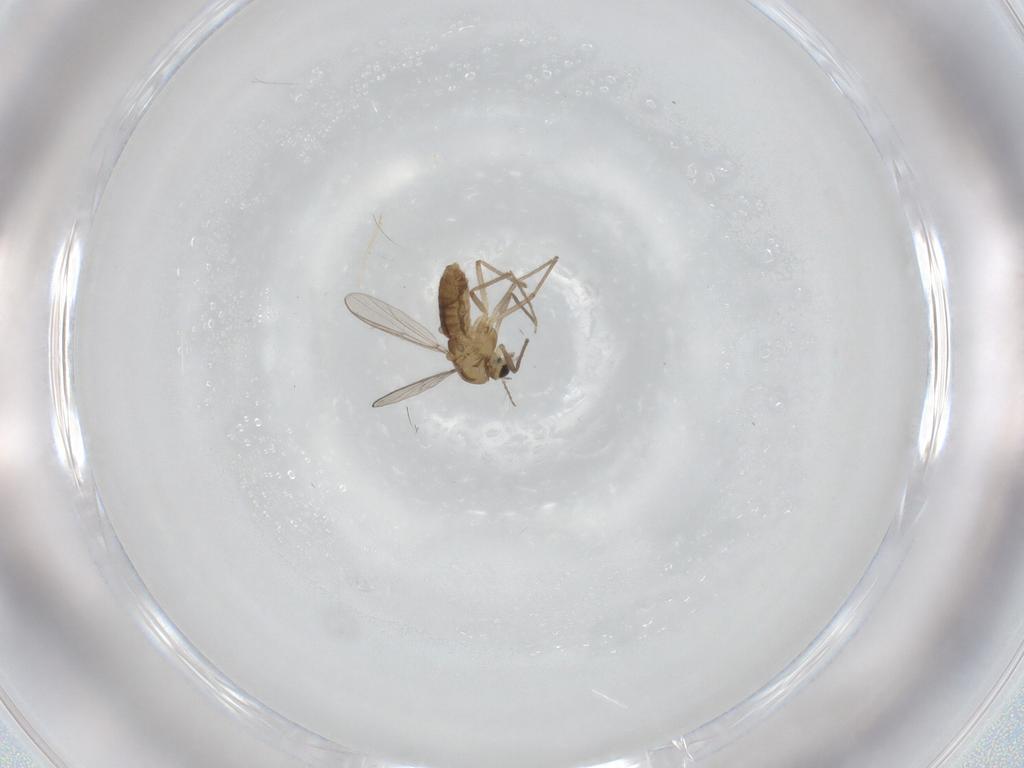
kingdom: Animalia
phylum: Arthropoda
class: Insecta
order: Diptera
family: Chironomidae
